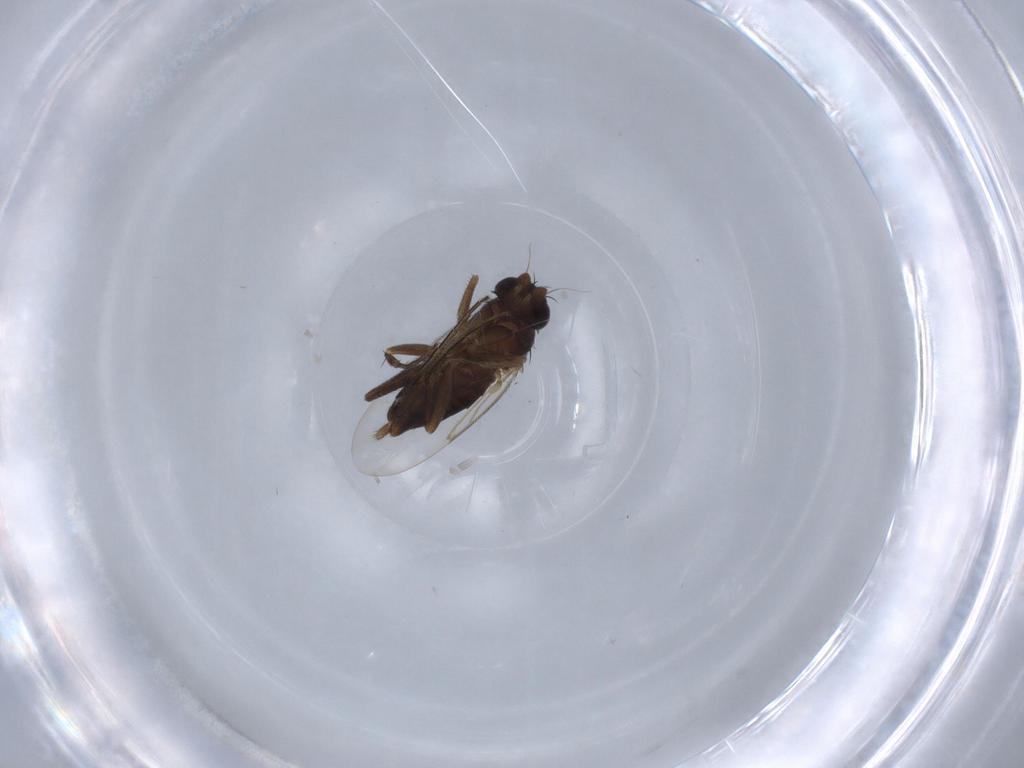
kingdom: Animalia
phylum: Arthropoda
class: Insecta
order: Diptera
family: Phoridae
